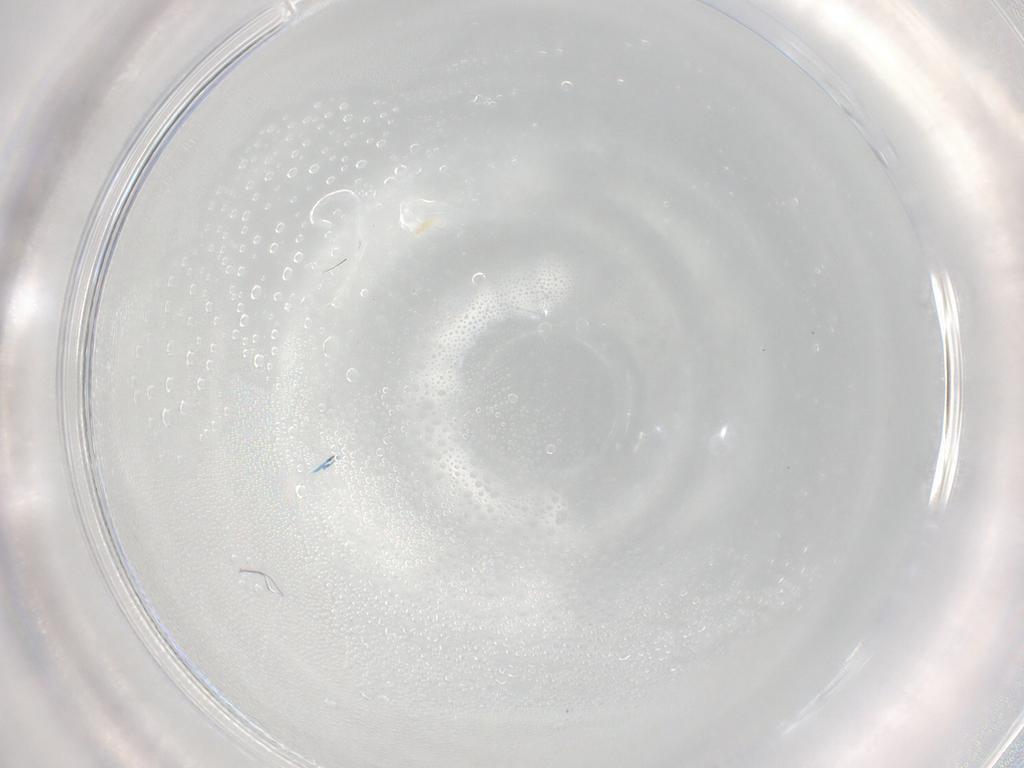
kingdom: Animalia
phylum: Arthropoda
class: Arachnida
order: Trombidiformes
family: Eupodidae
